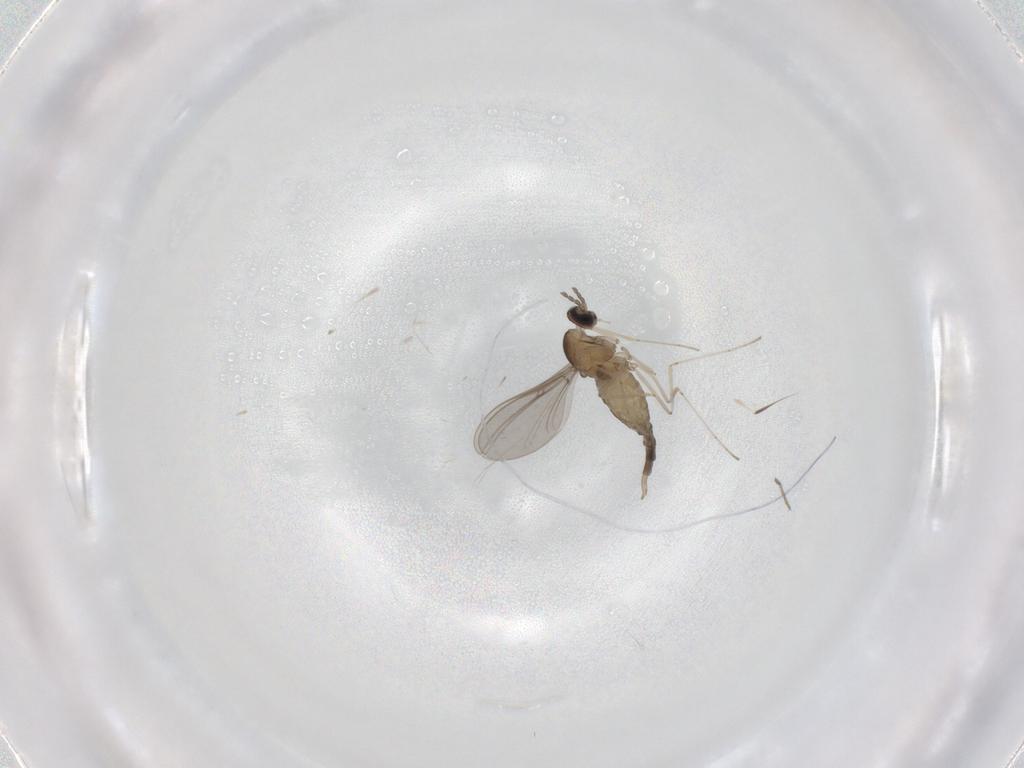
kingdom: Animalia
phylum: Arthropoda
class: Insecta
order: Diptera
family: Cecidomyiidae
